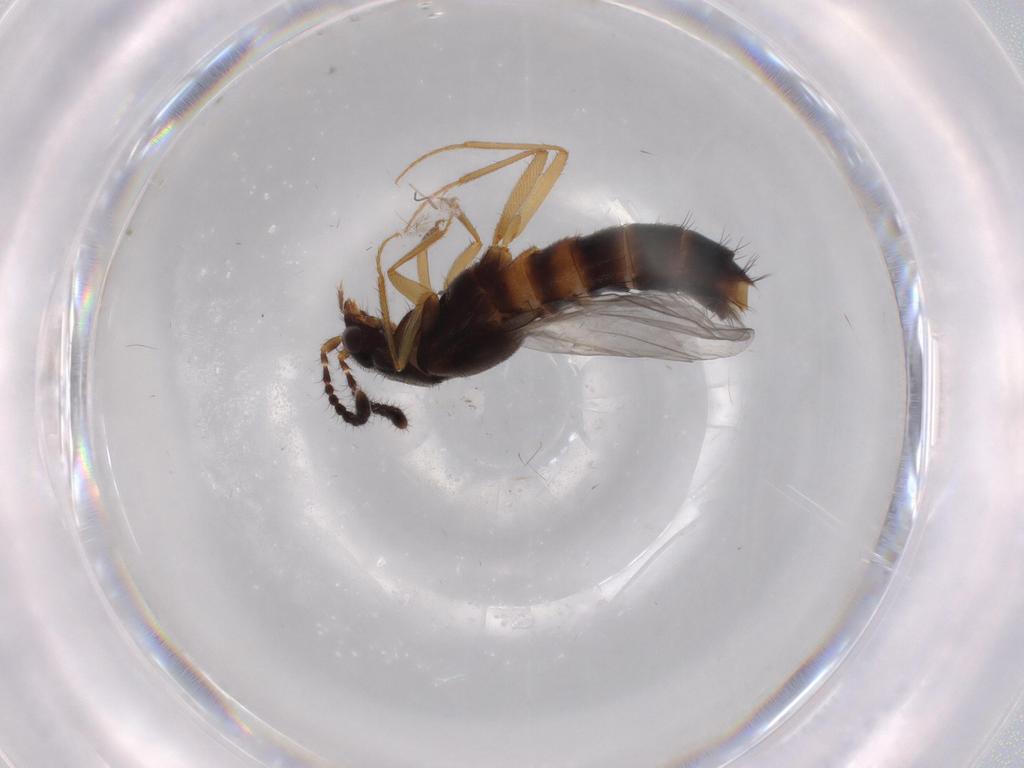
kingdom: Animalia
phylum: Arthropoda
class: Insecta
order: Coleoptera
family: Staphylinidae
